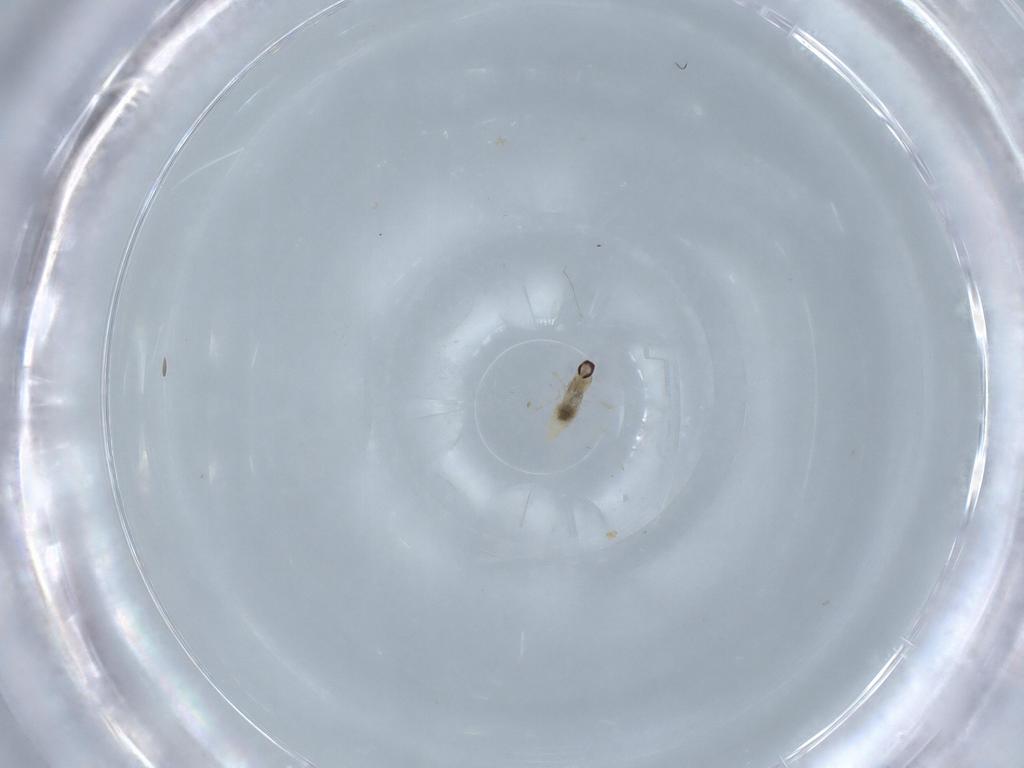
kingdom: Animalia
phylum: Arthropoda
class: Insecta
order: Diptera
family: Cecidomyiidae
